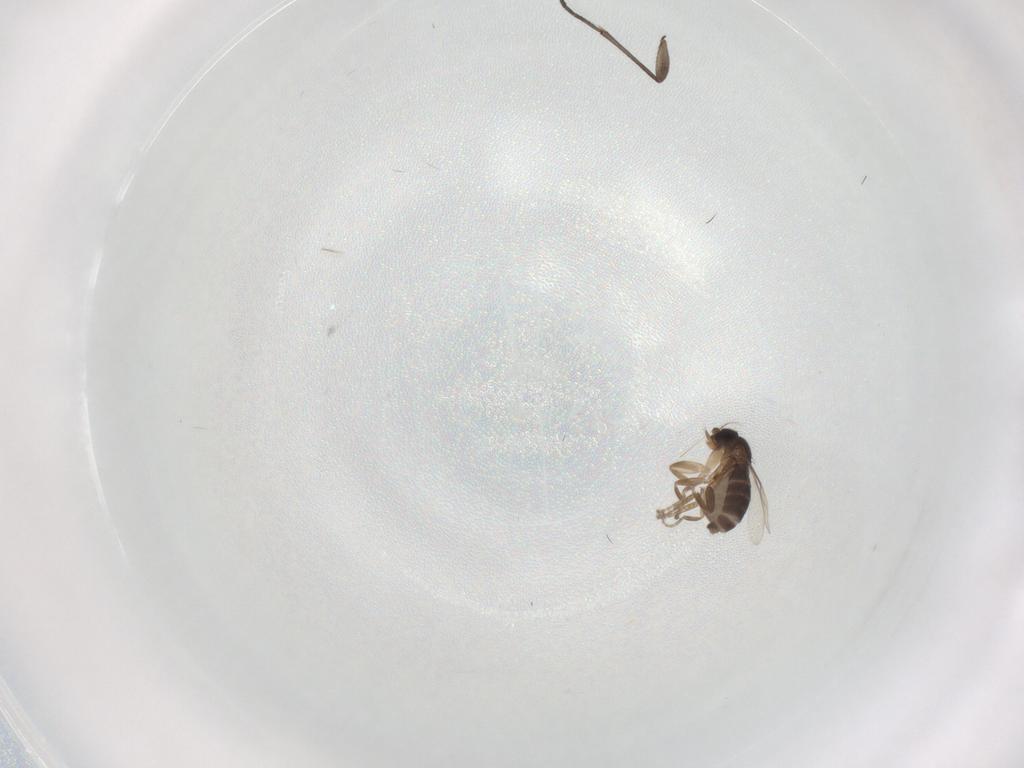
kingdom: Animalia
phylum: Arthropoda
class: Insecta
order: Diptera
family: Sciaridae
